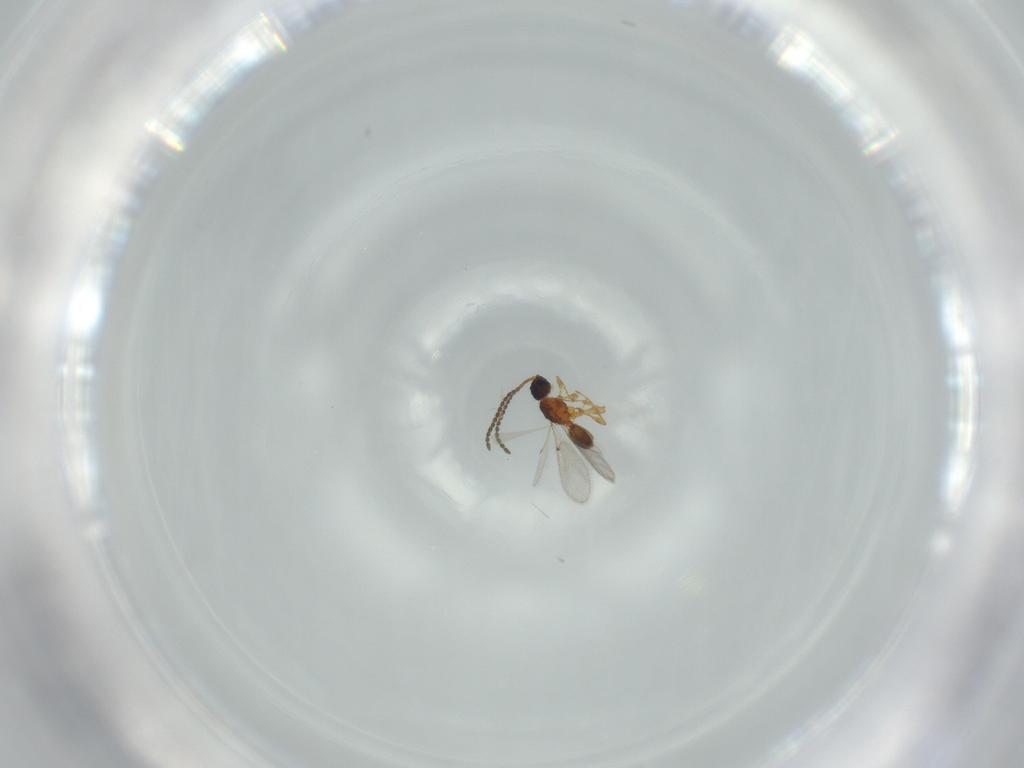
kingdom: Animalia
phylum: Arthropoda
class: Insecta
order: Hymenoptera
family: Diapriidae
